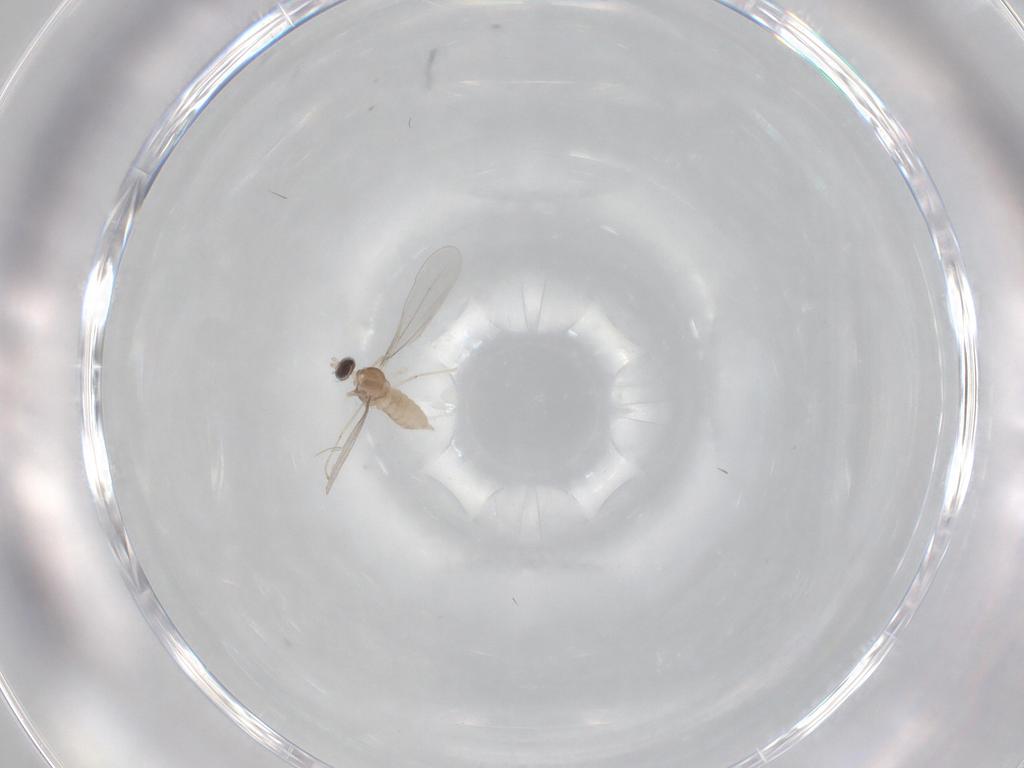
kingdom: Animalia
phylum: Arthropoda
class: Insecta
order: Diptera
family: Cecidomyiidae
